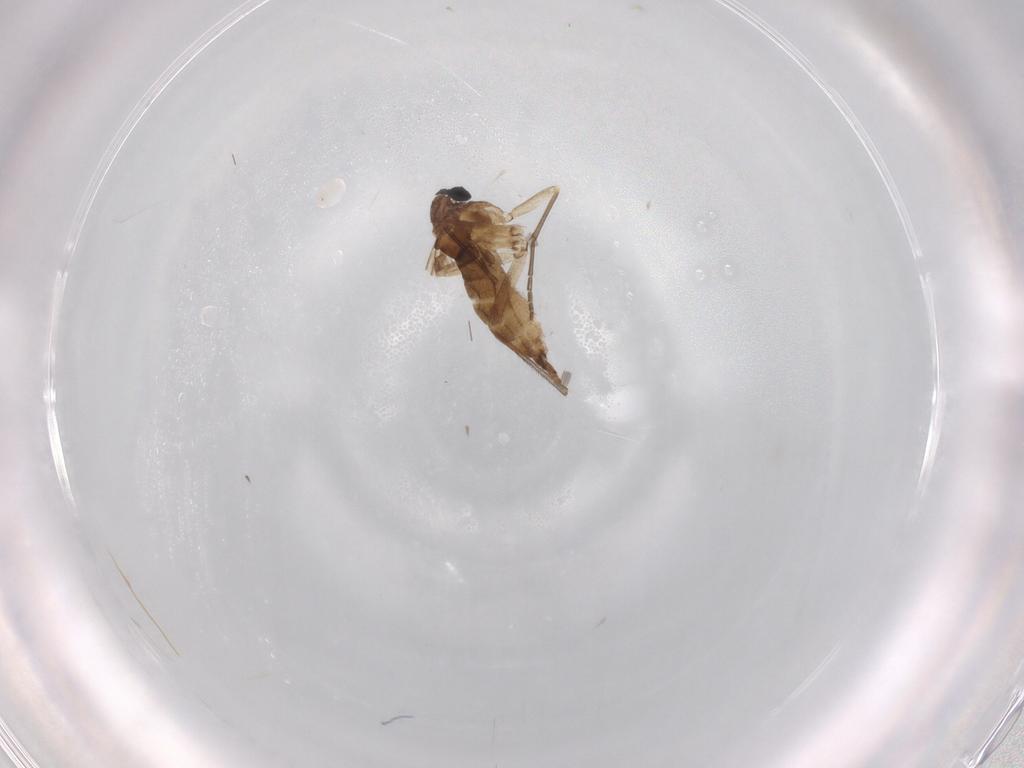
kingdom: Animalia
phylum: Arthropoda
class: Insecta
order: Diptera
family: Sciaridae
